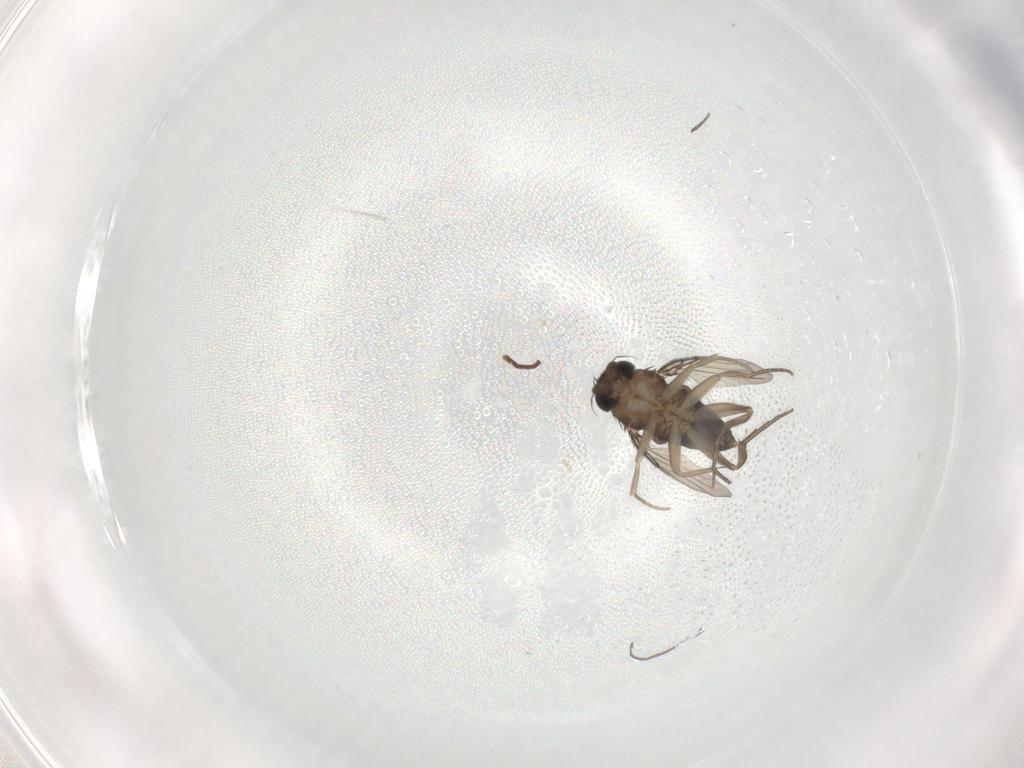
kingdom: Animalia
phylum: Arthropoda
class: Insecta
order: Diptera
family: Phoridae
